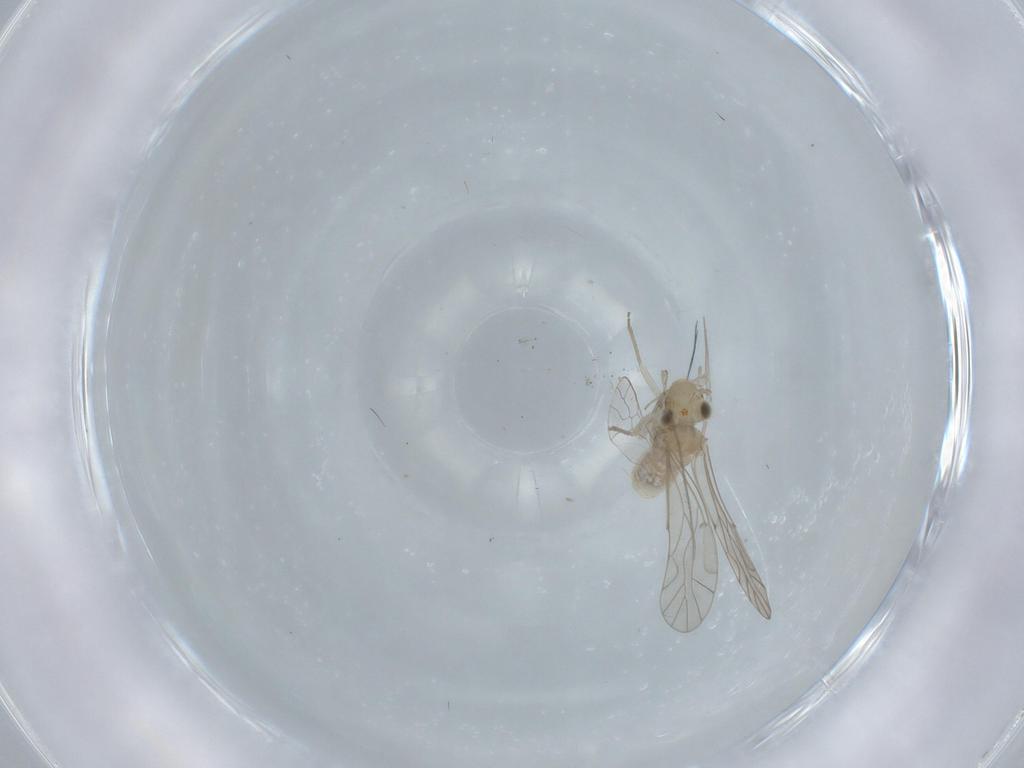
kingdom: Animalia
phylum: Arthropoda
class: Insecta
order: Psocodea
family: Lachesillidae
